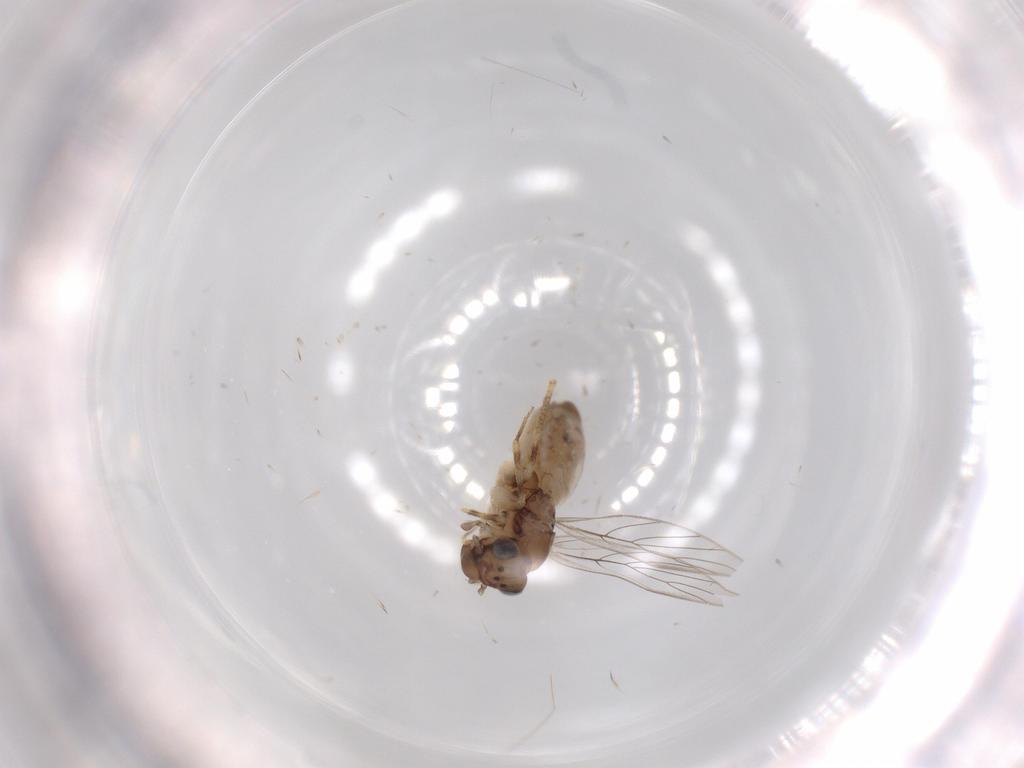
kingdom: Animalia
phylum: Arthropoda
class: Insecta
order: Psocodea
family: Lepidopsocidae
